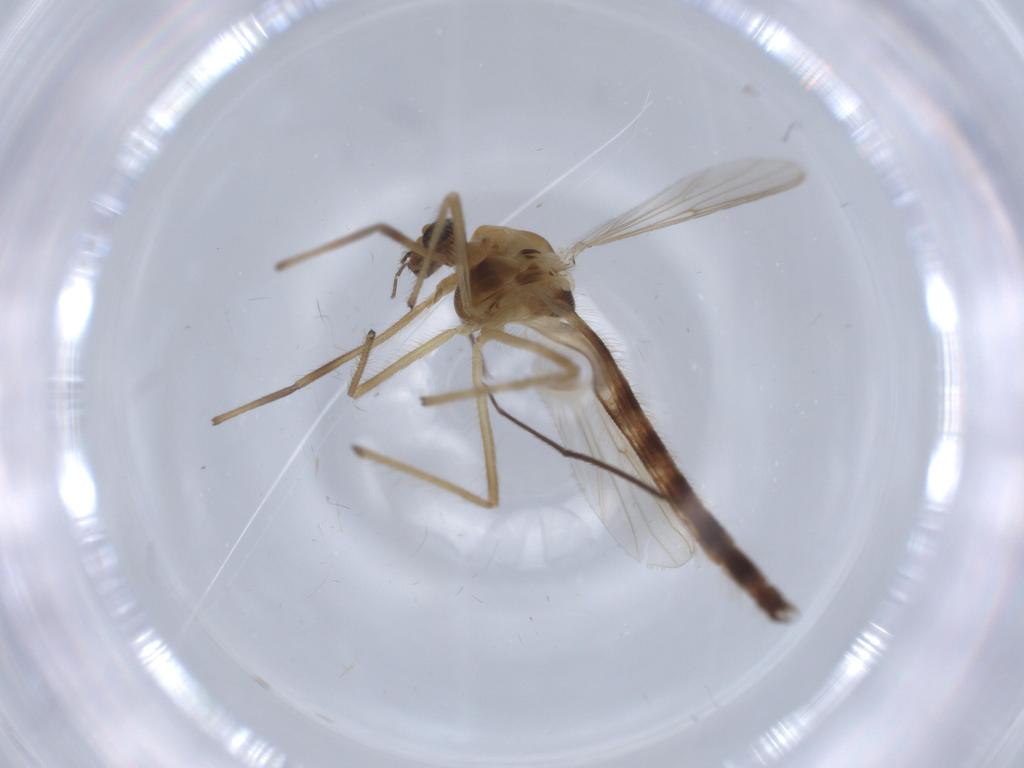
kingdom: Animalia
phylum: Arthropoda
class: Insecta
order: Diptera
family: Chironomidae
